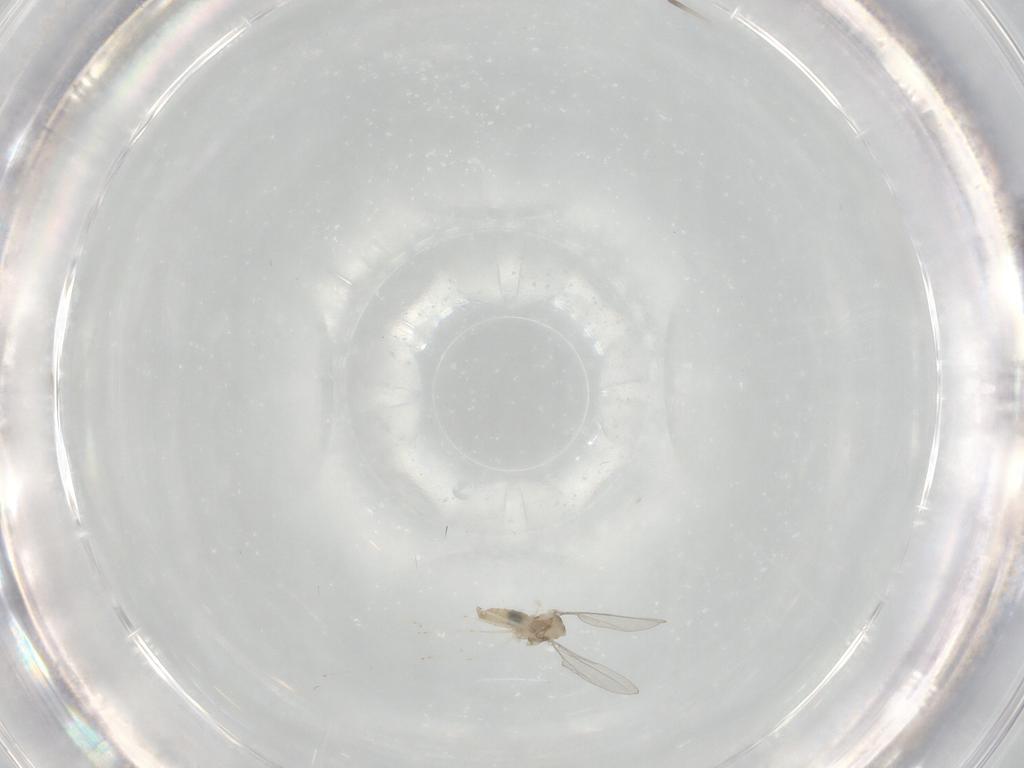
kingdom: Animalia
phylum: Arthropoda
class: Insecta
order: Diptera
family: Cecidomyiidae
